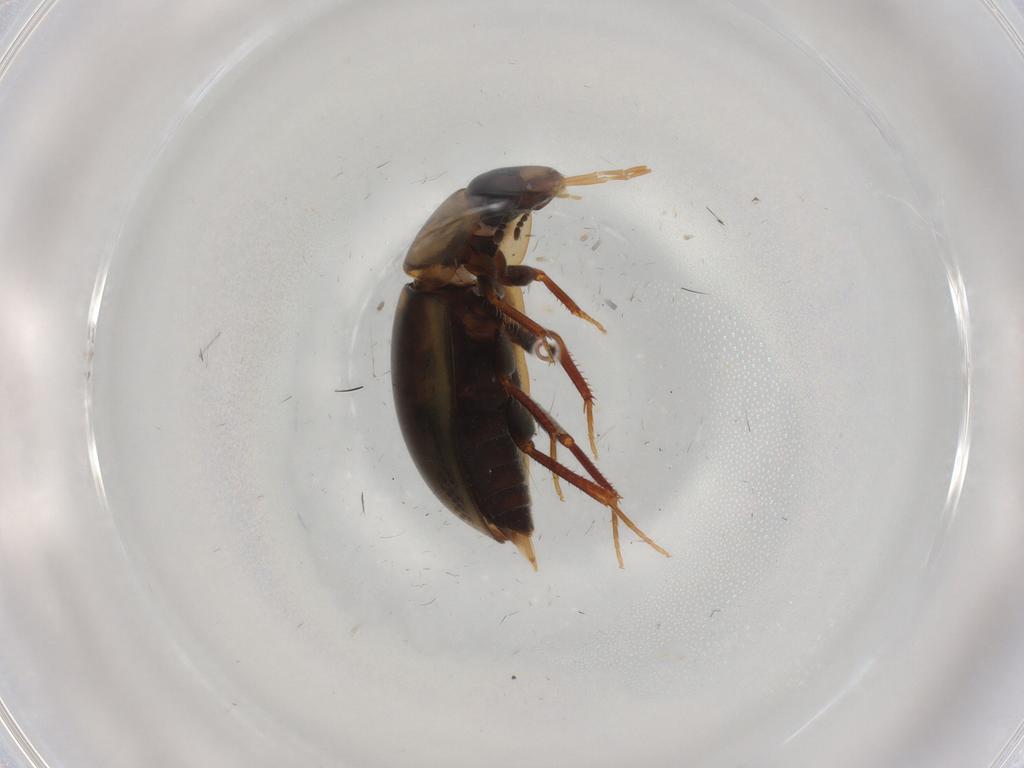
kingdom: Animalia
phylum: Arthropoda
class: Insecta
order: Coleoptera
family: Hydrophilidae
